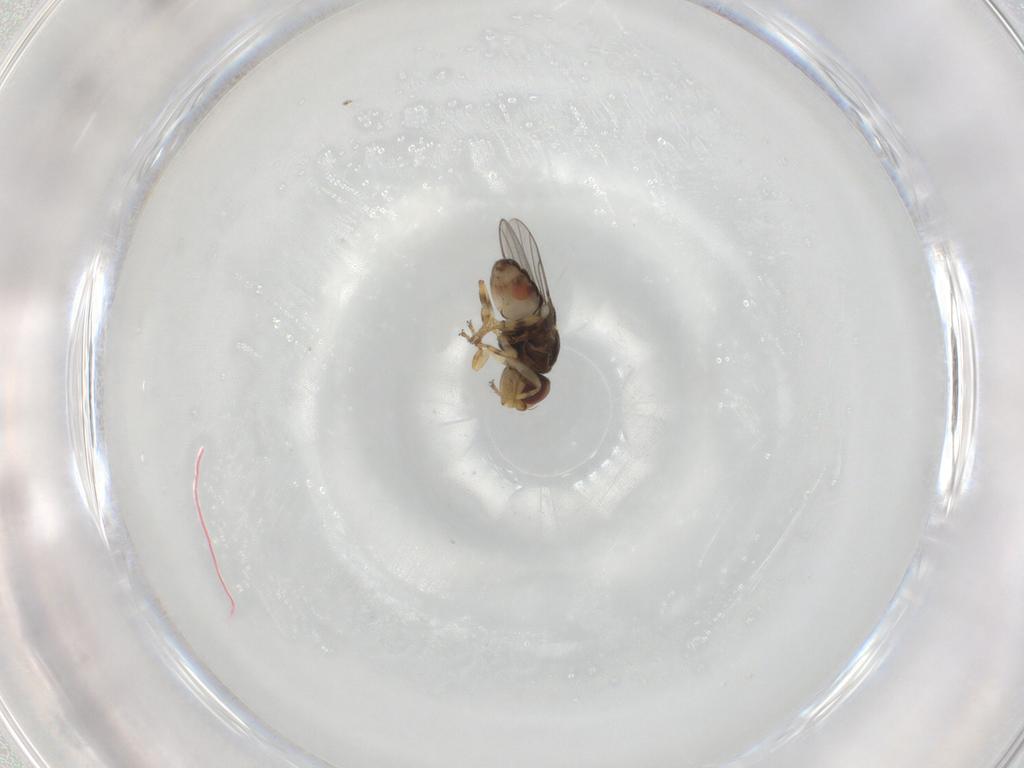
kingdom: Animalia
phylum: Arthropoda
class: Insecta
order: Diptera
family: Chloropidae
